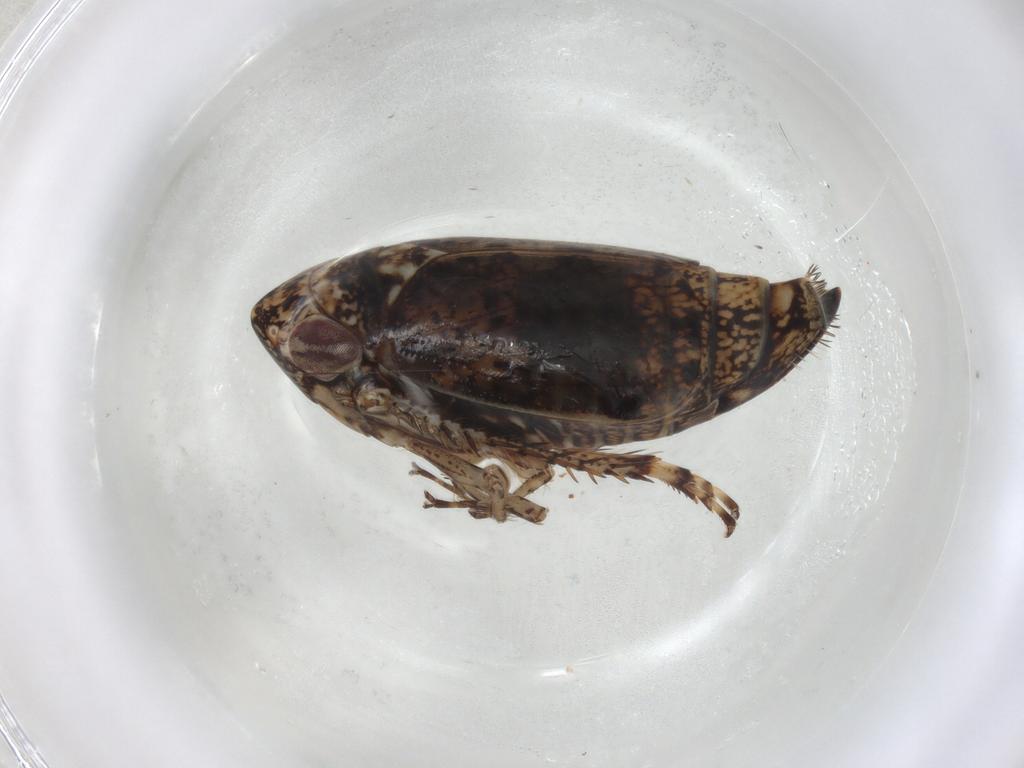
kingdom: Animalia
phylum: Arthropoda
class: Insecta
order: Hemiptera
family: Cicadellidae
